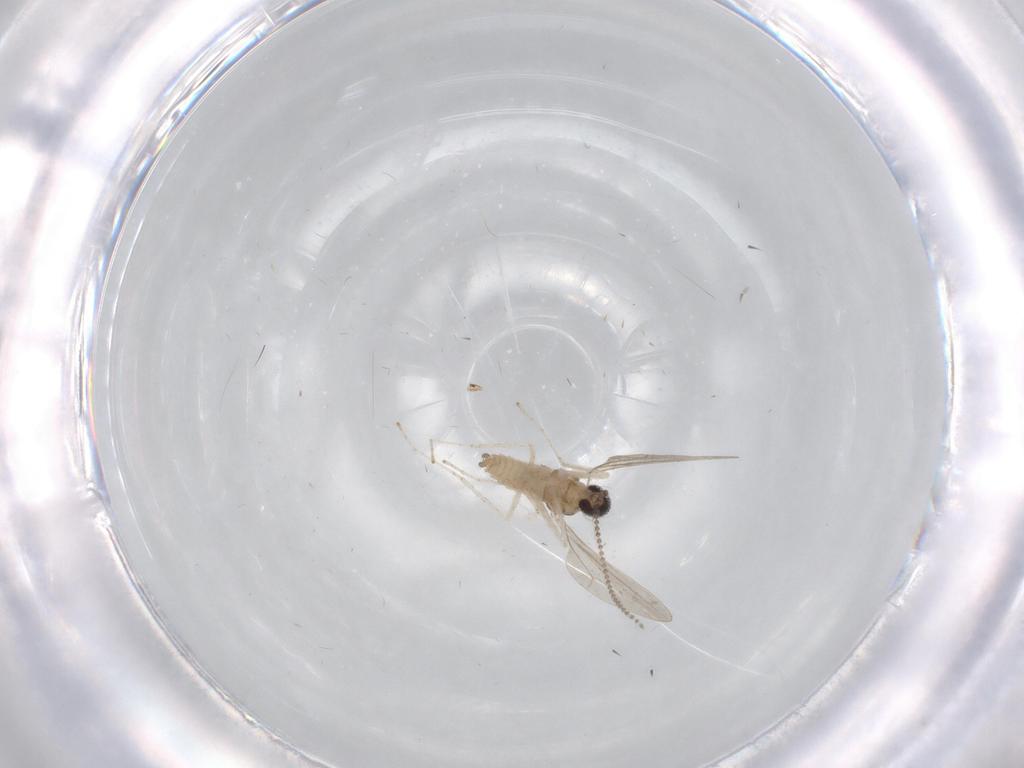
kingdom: Animalia
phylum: Arthropoda
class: Insecta
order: Diptera
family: Cecidomyiidae
